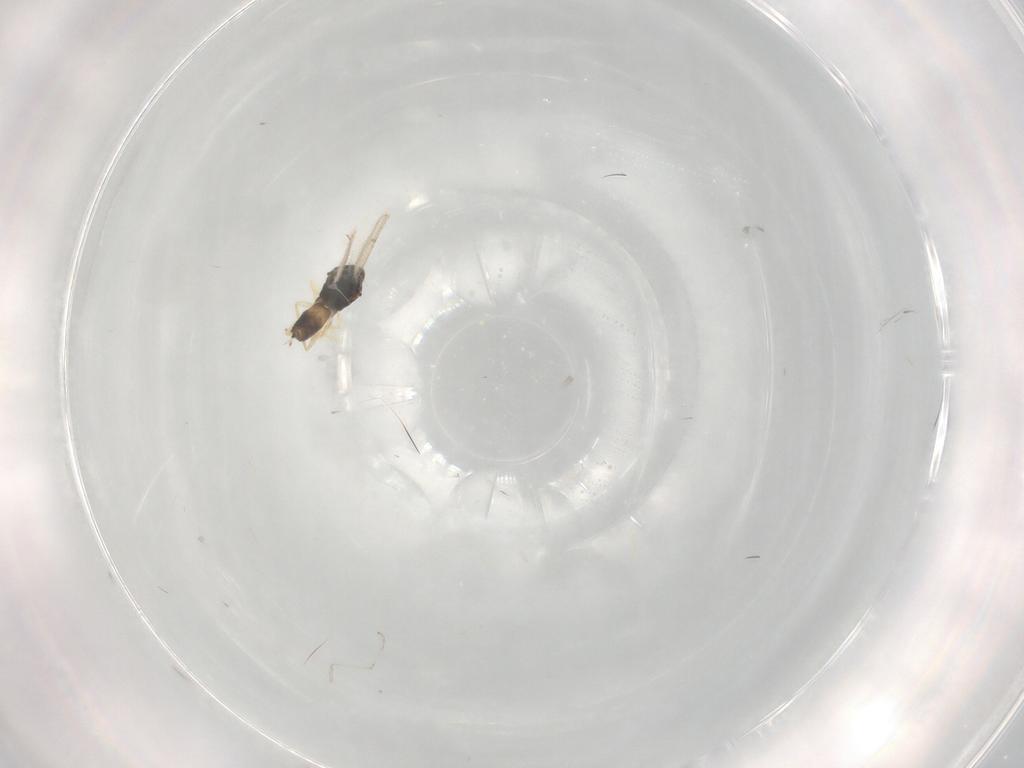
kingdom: Animalia
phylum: Arthropoda
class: Insecta
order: Hymenoptera
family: Eulophidae
